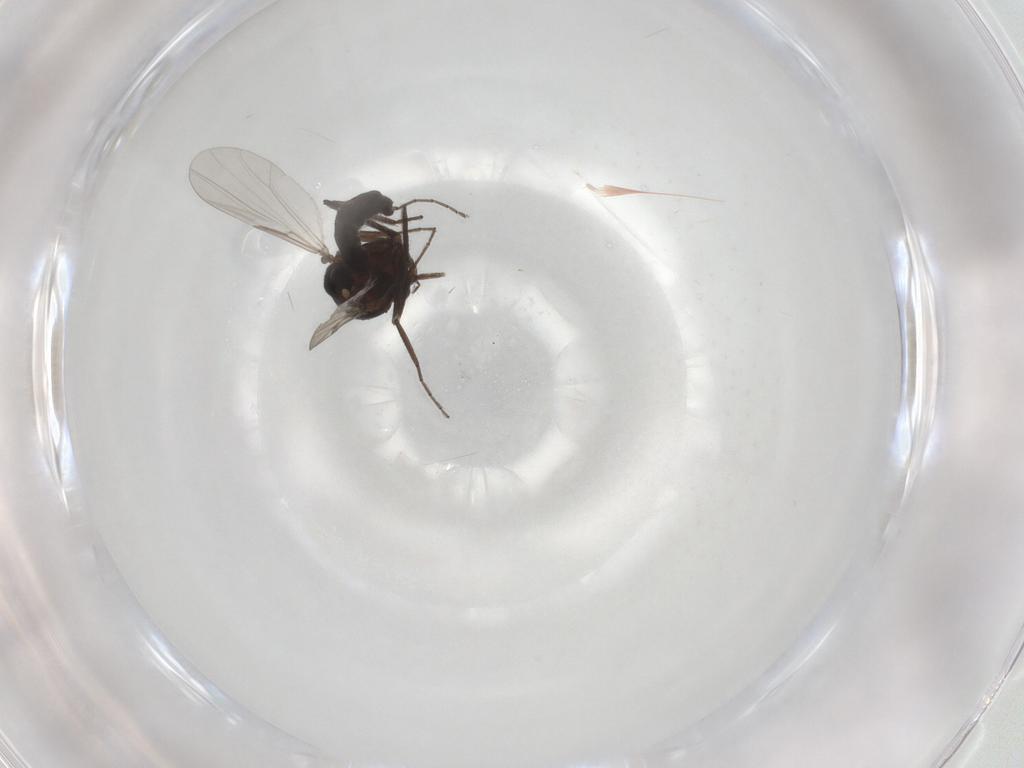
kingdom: Animalia
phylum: Arthropoda
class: Insecta
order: Diptera
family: Ceratopogonidae
